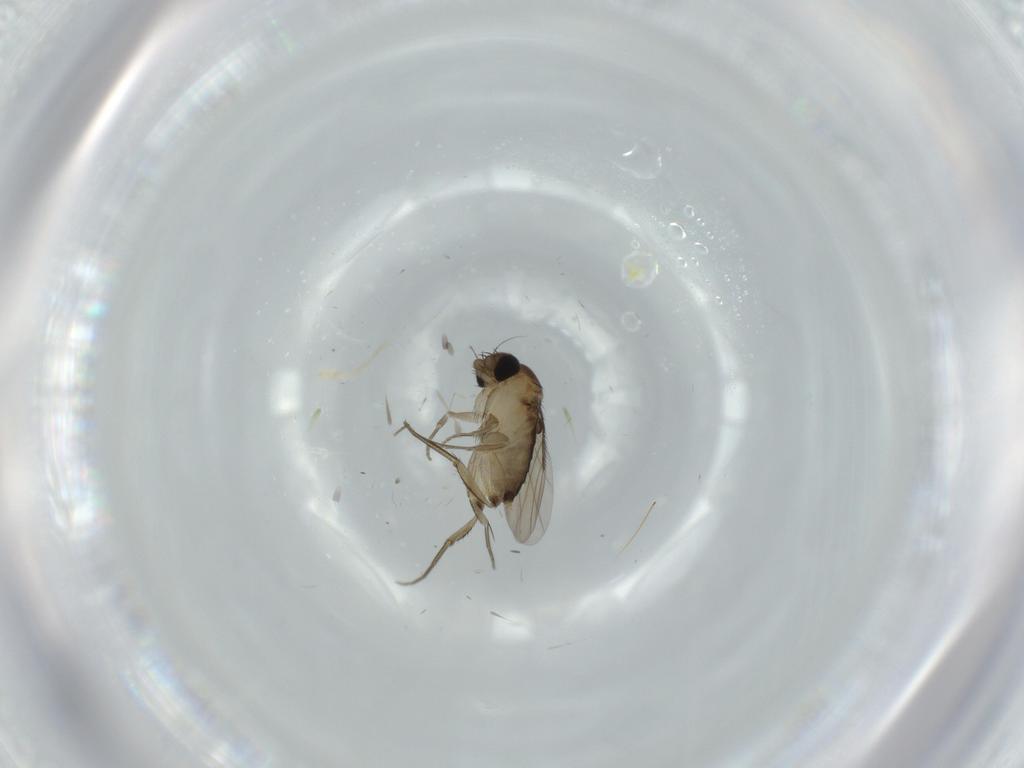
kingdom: Animalia
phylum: Arthropoda
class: Insecta
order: Diptera
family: Phoridae
